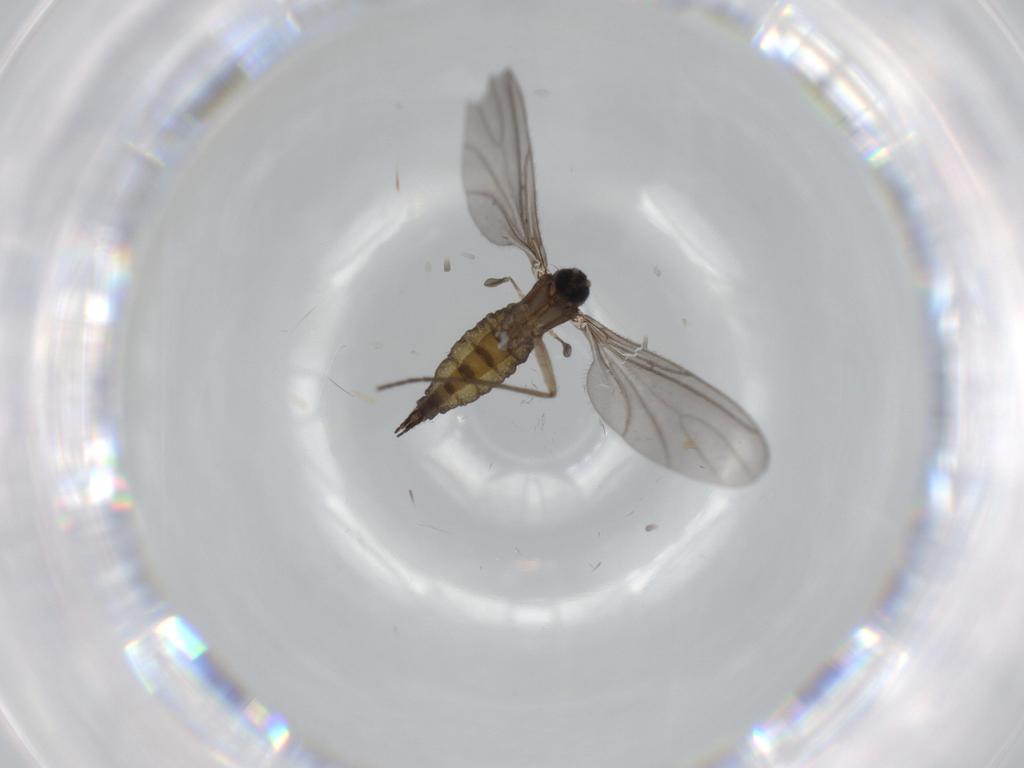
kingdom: Animalia
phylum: Arthropoda
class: Insecta
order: Diptera
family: Sciaridae
